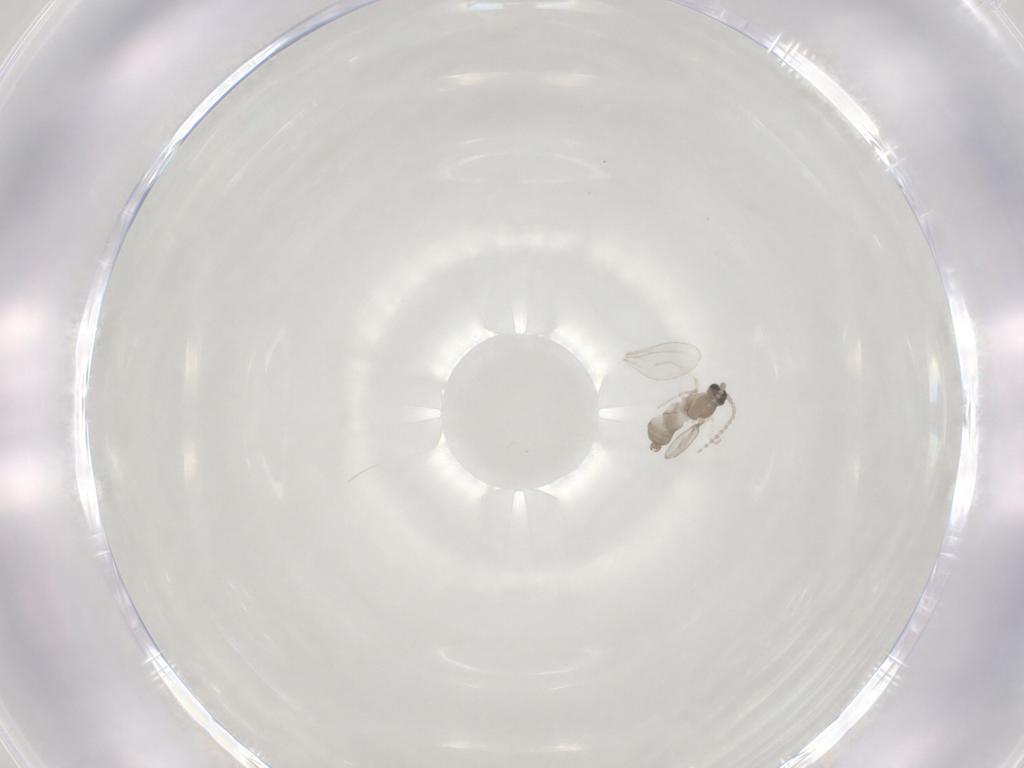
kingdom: Animalia
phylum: Arthropoda
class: Insecta
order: Diptera
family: Cecidomyiidae
